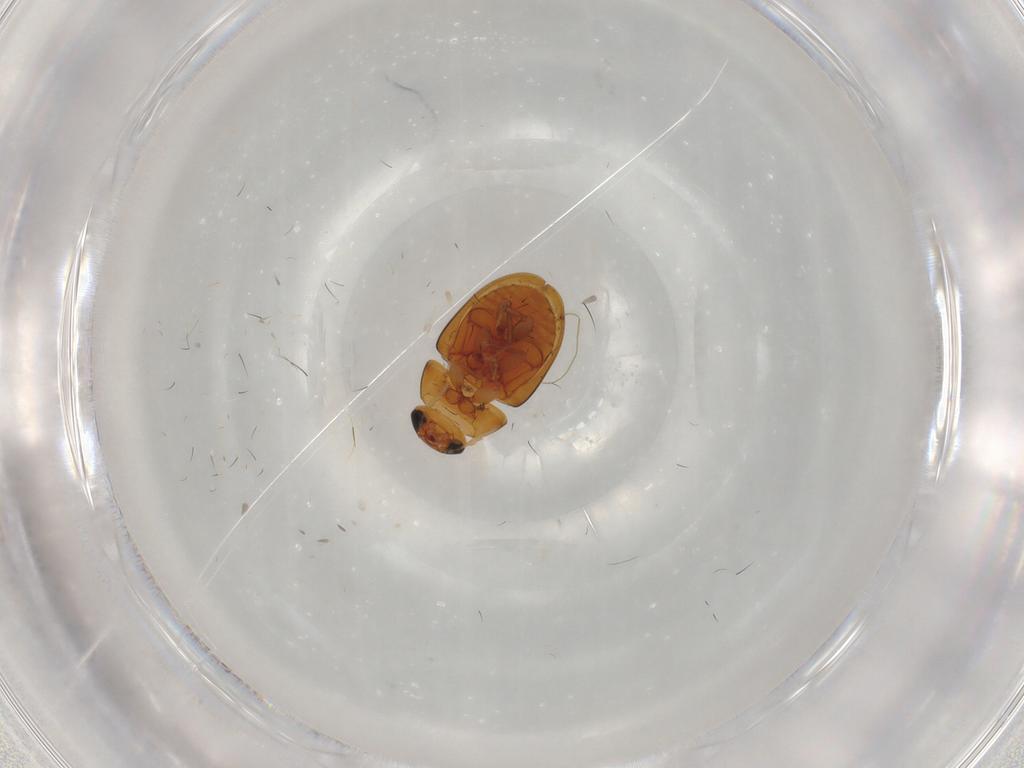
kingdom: Animalia
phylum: Arthropoda
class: Insecta
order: Coleoptera
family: Phalacridae
